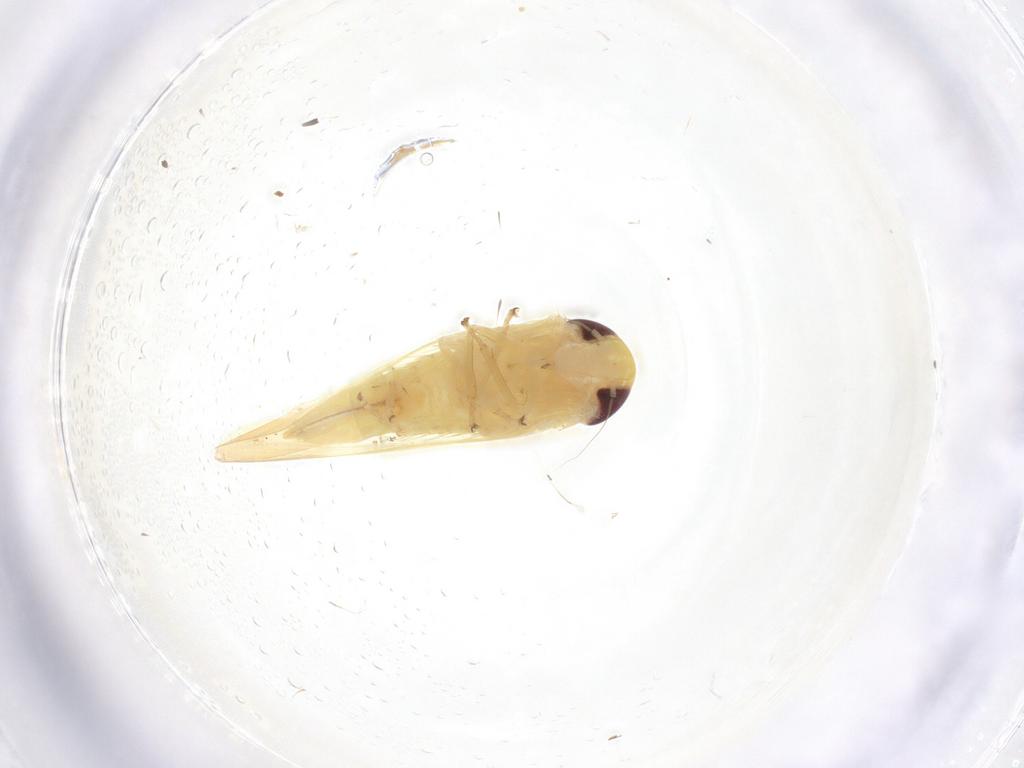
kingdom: Animalia
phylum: Arthropoda
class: Insecta
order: Hemiptera
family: Cicadellidae
